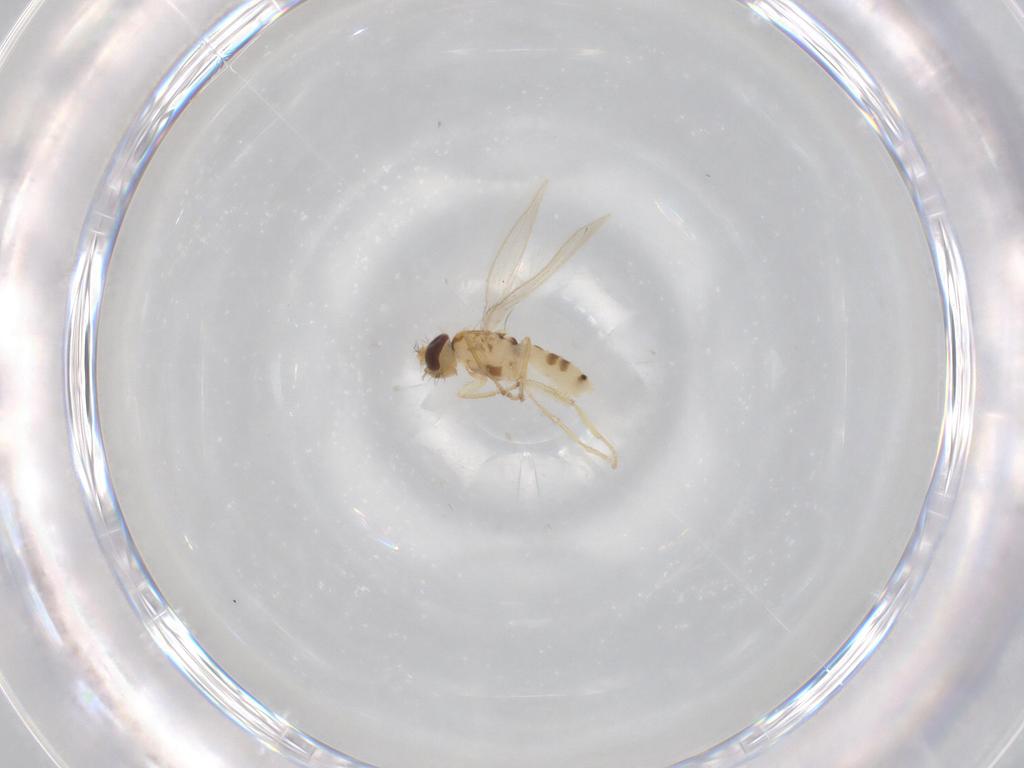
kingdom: Animalia
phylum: Arthropoda
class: Insecta
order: Diptera
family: Periscelididae
